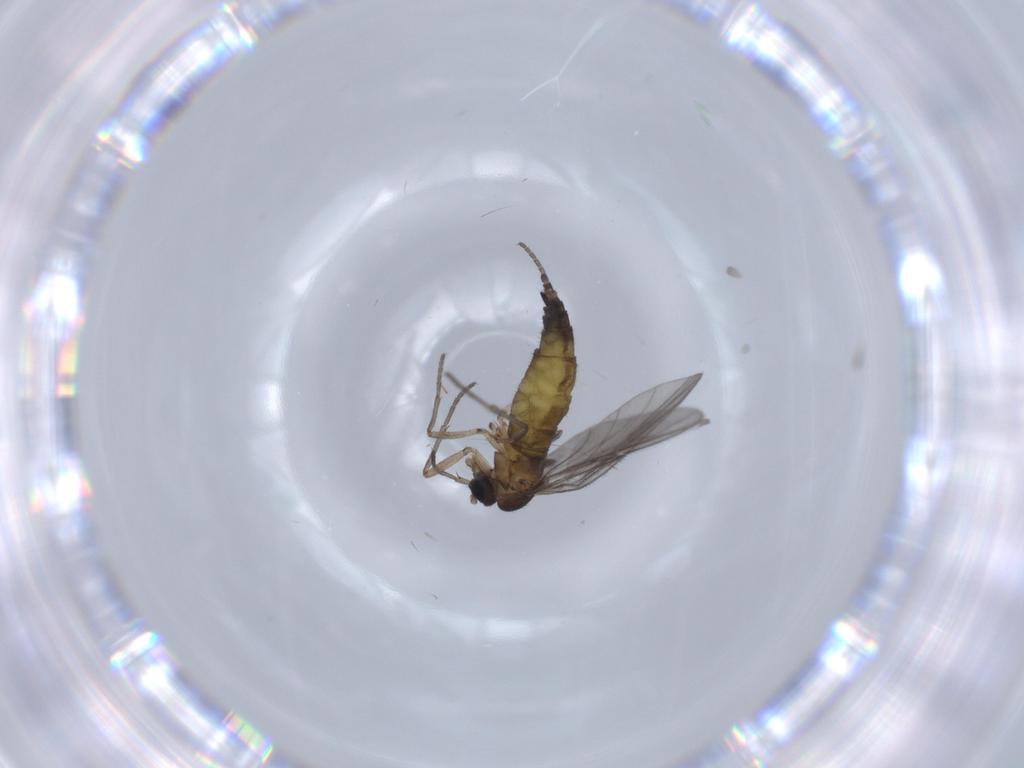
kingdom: Animalia
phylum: Arthropoda
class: Insecta
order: Diptera
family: Sciaridae
